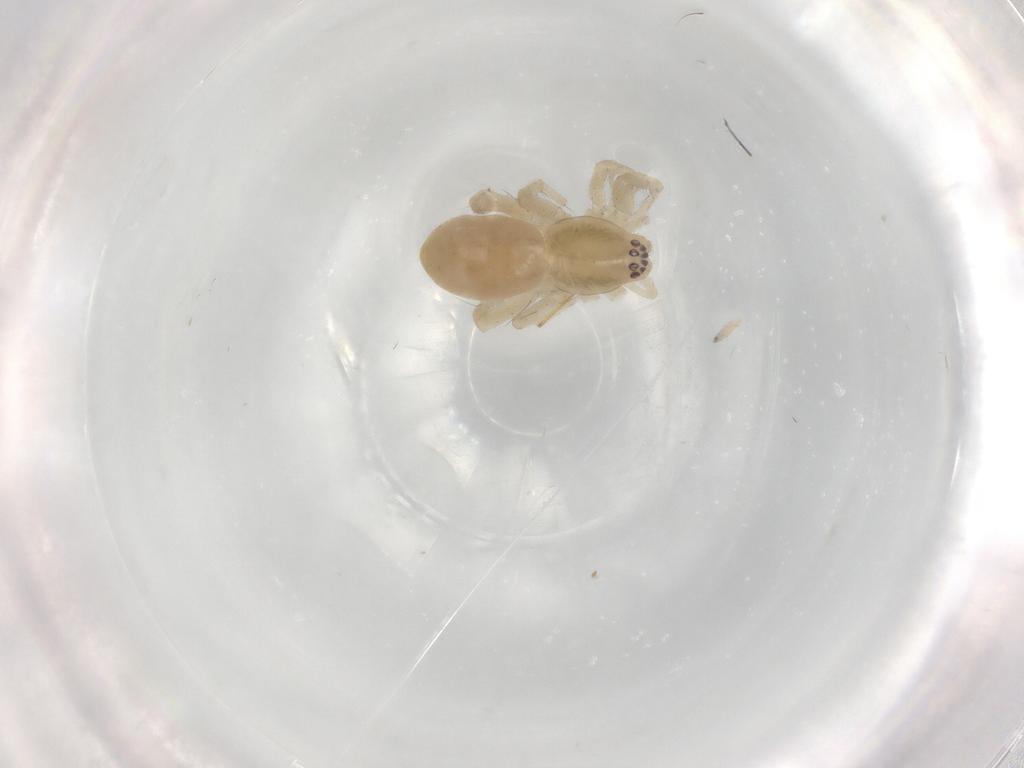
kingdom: Animalia
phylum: Arthropoda
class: Arachnida
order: Araneae
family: Anyphaenidae
